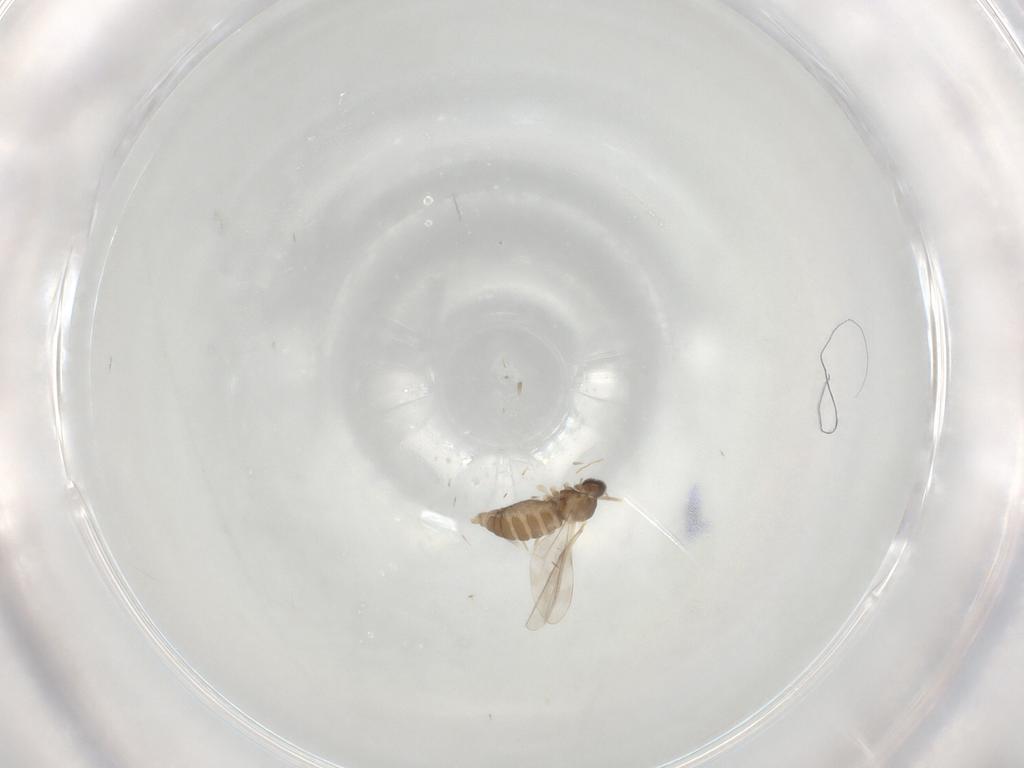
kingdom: Animalia
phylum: Arthropoda
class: Insecta
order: Diptera
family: Cecidomyiidae
